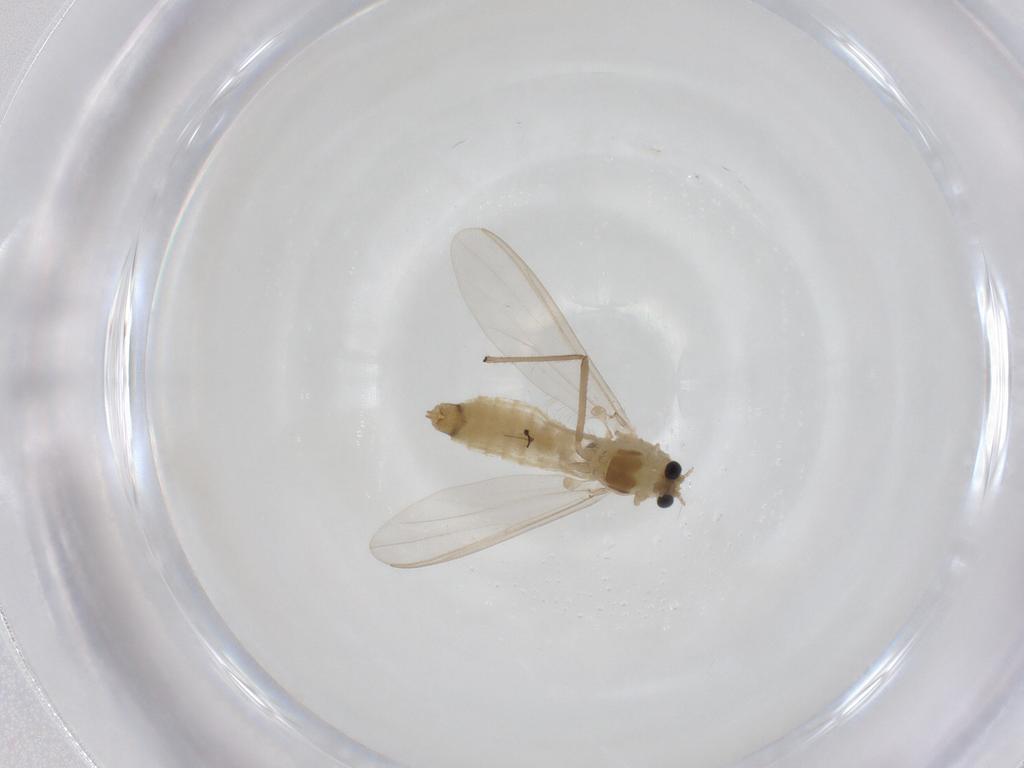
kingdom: Animalia
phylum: Arthropoda
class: Insecta
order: Diptera
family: Chironomidae
